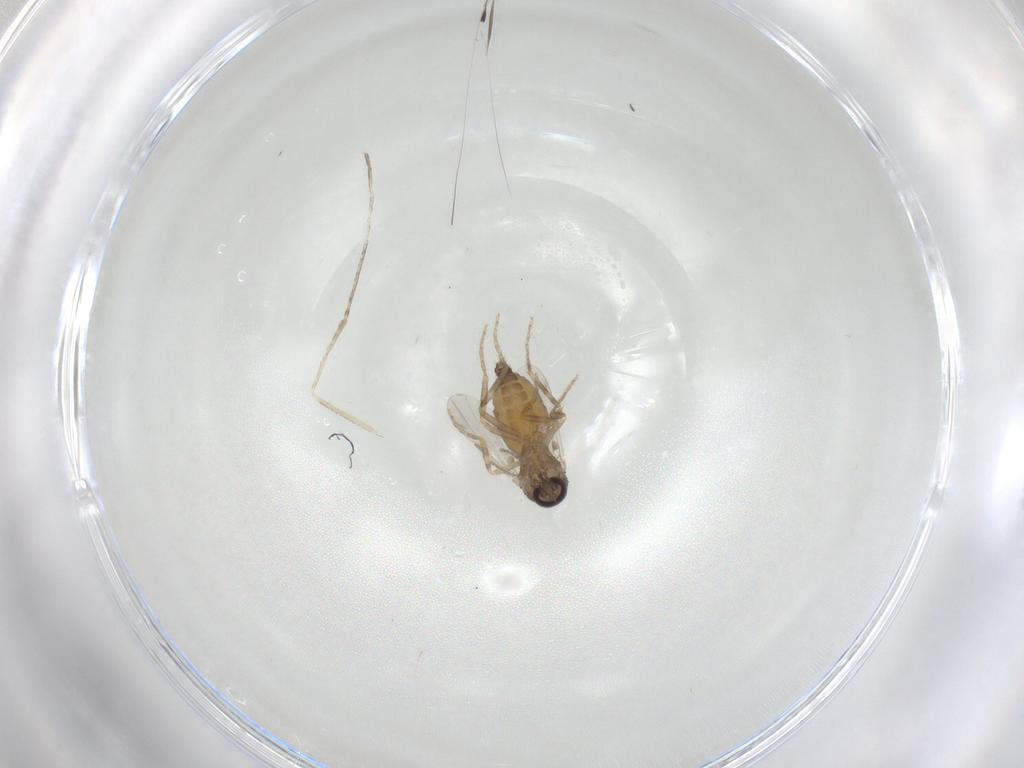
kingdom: Animalia
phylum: Arthropoda
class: Insecta
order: Diptera
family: Ceratopogonidae
